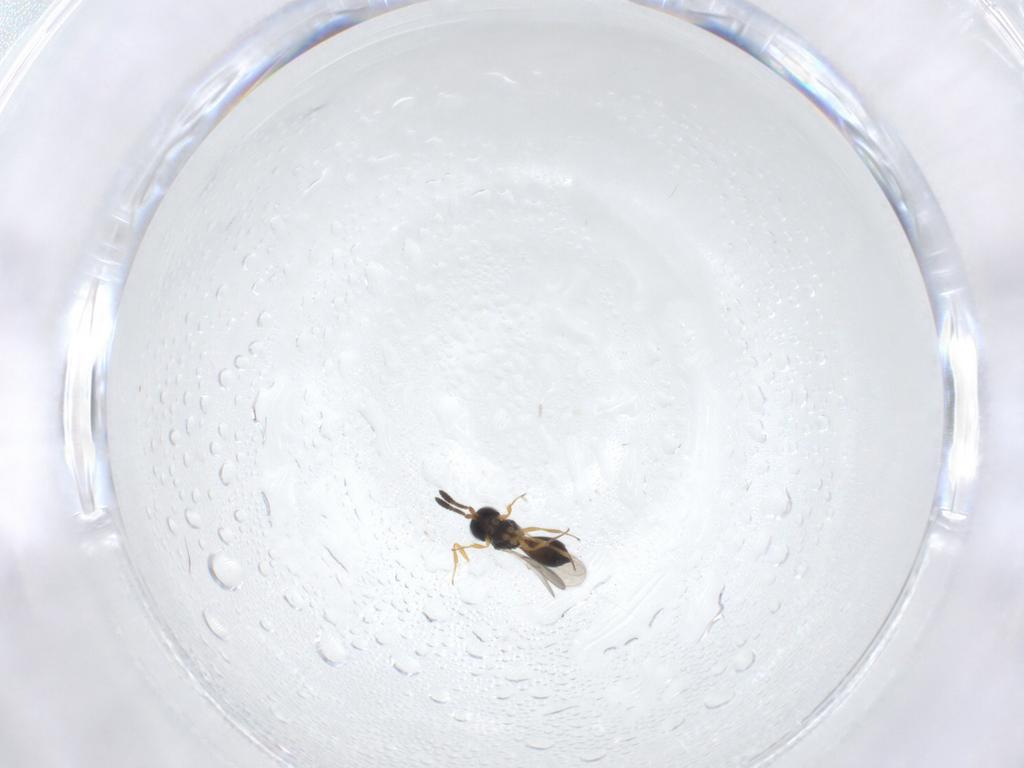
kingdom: Animalia
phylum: Arthropoda
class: Insecta
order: Hymenoptera
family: Scelionidae
